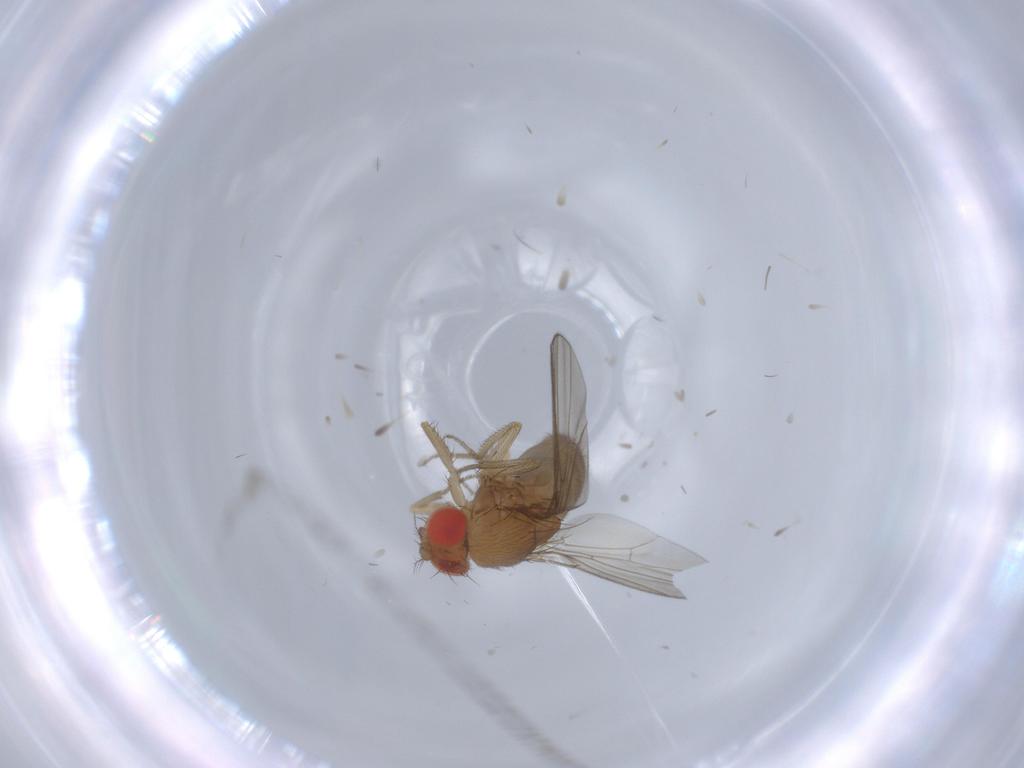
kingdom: Animalia
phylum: Arthropoda
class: Insecta
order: Diptera
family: Drosophilidae
